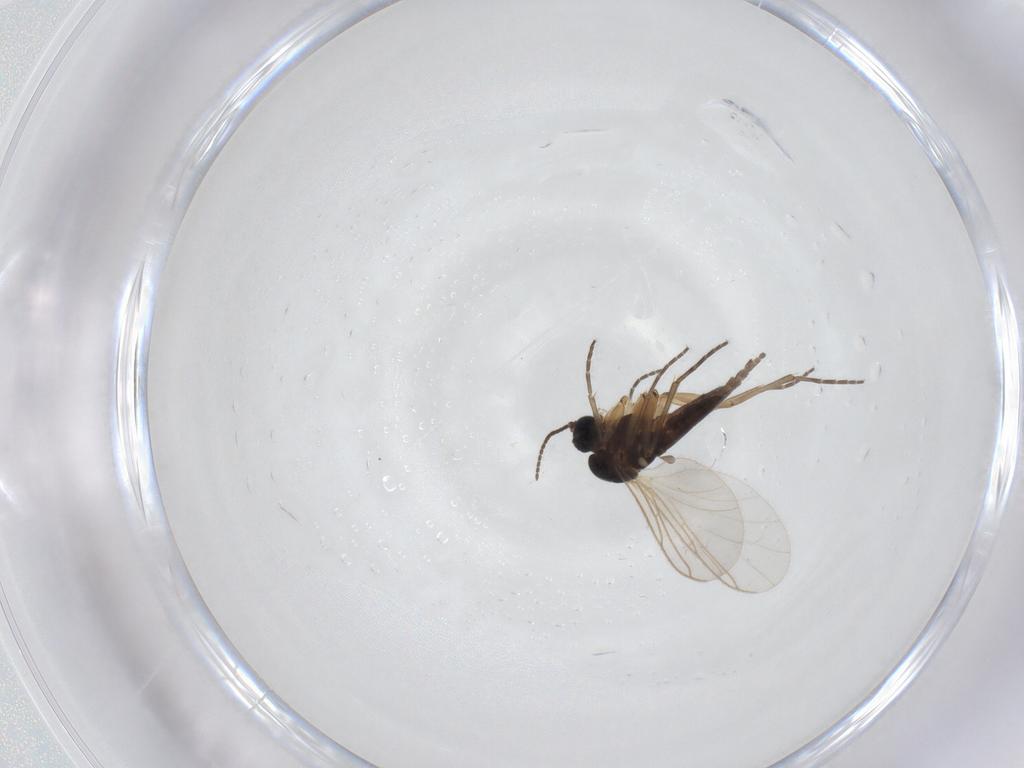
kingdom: Animalia
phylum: Arthropoda
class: Insecta
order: Diptera
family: Sciaridae
